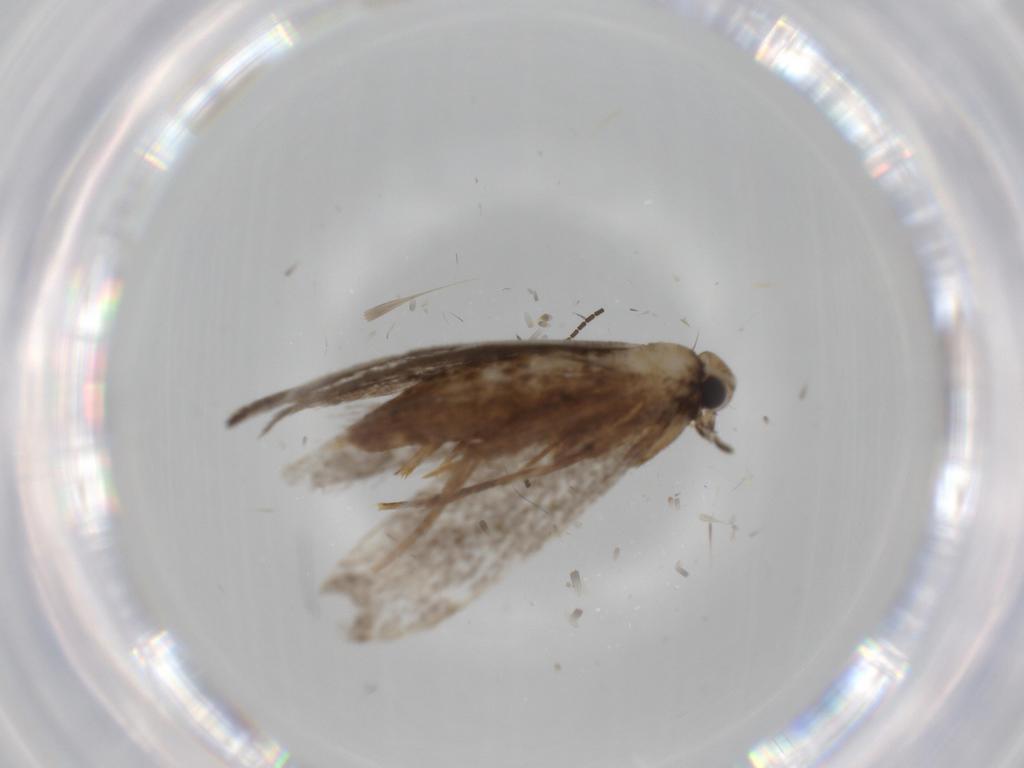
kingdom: Animalia
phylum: Arthropoda
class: Insecta
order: Lepidoptera
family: Tineidae
